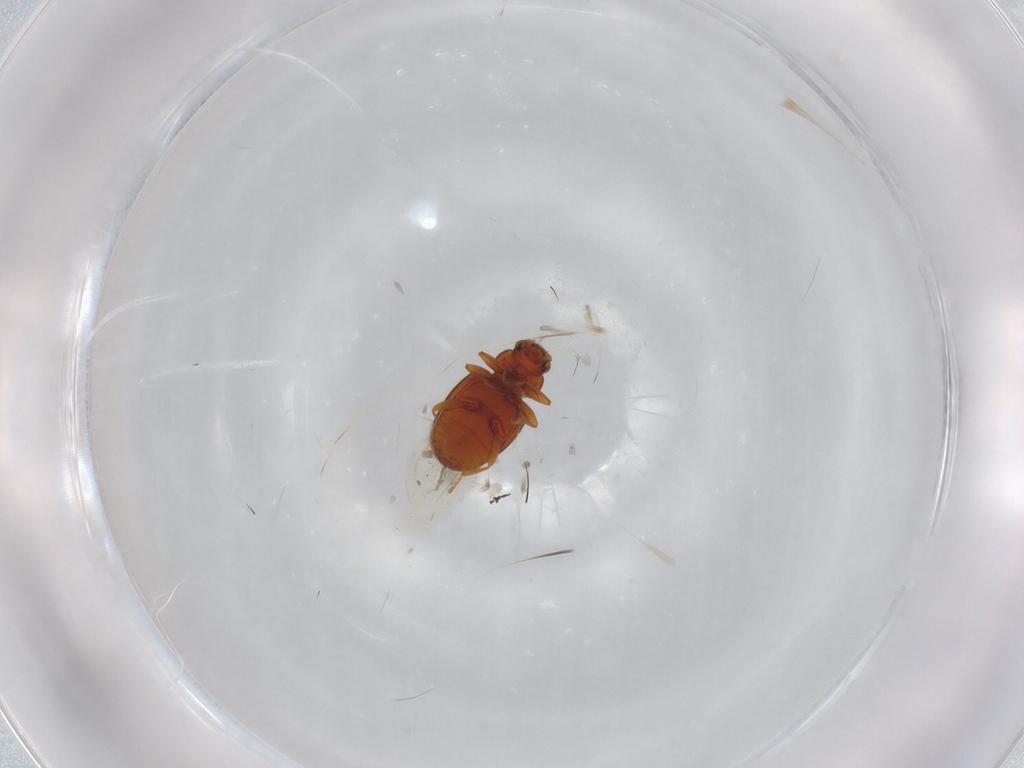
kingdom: Animalia
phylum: Arthropoda
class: Insecta
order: Coleoptera
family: Latridiidae
